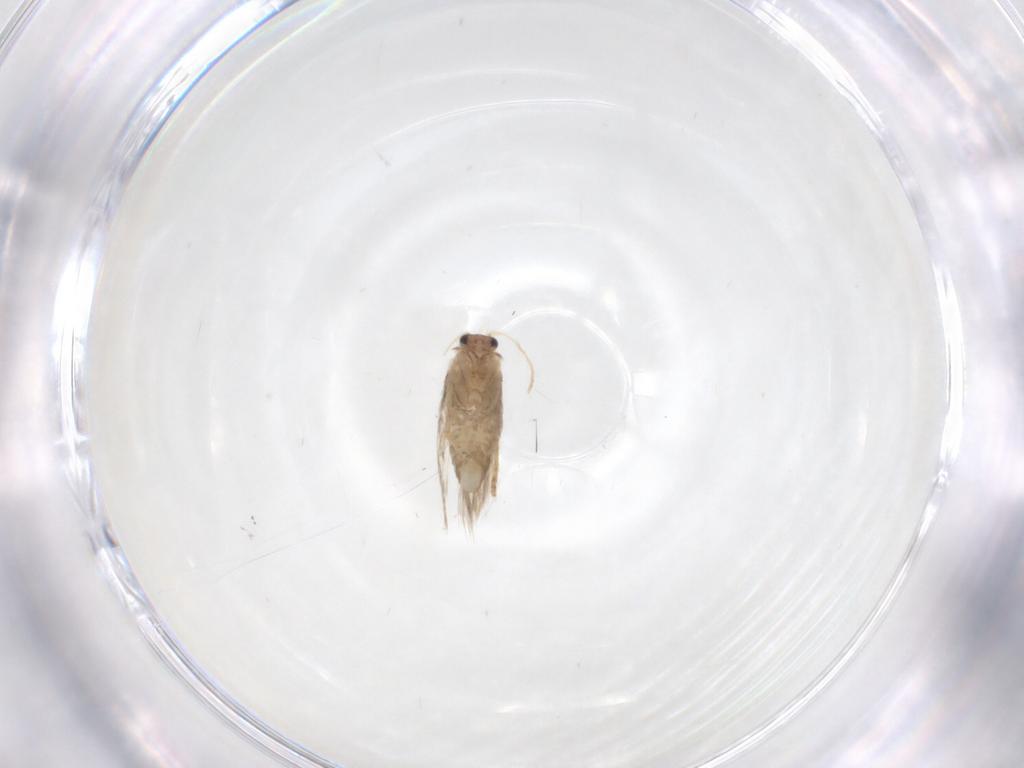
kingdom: Animalia
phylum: Arthropoda
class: Insecta
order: Lepidoptera
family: Nepticulidae
